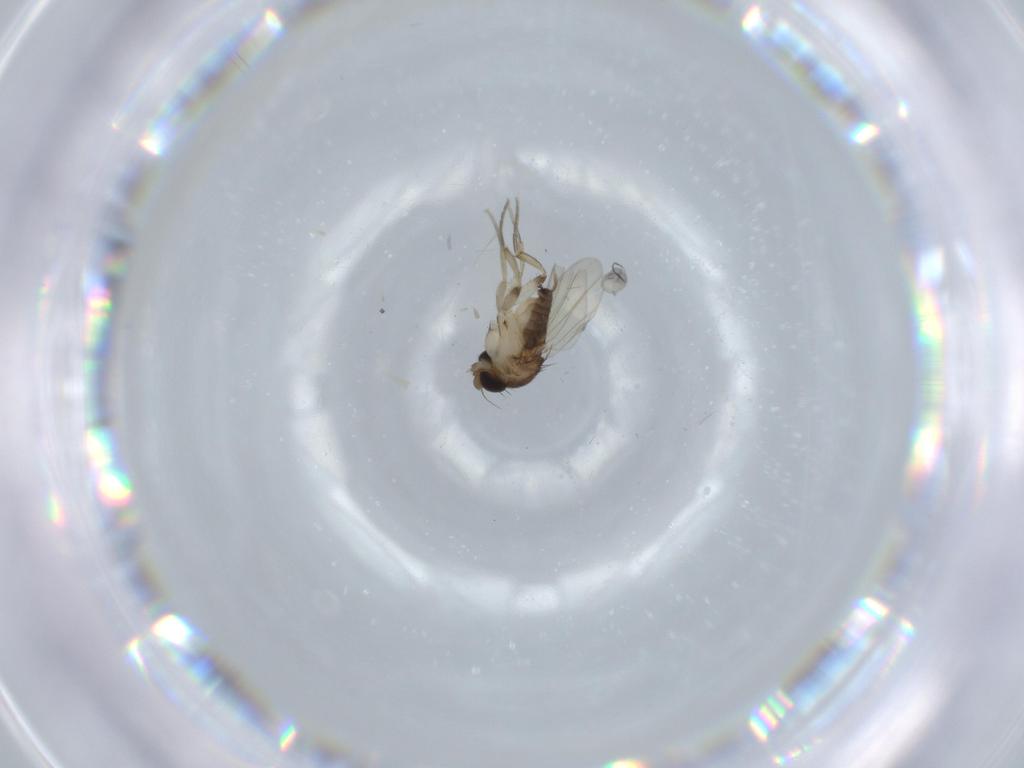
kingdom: Animalia
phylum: Arthropoda
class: Insecta
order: Diptera
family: Phoridae
